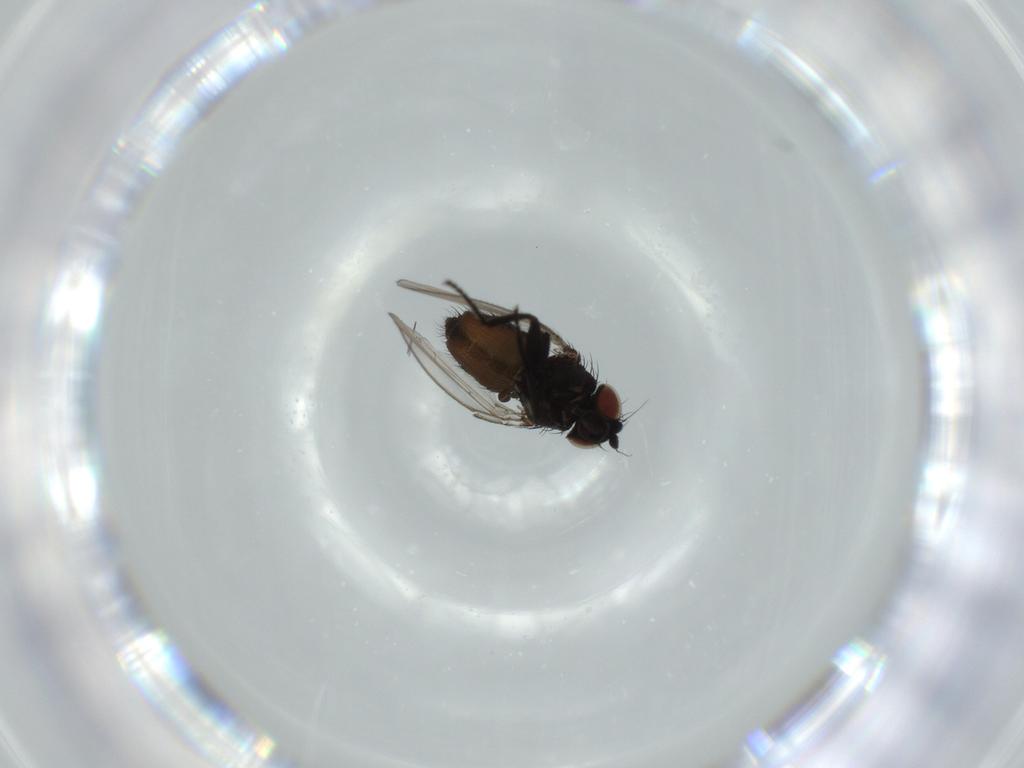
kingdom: Animalia
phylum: Arthropoda
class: Insecta
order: Diptera
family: Milichiidae
